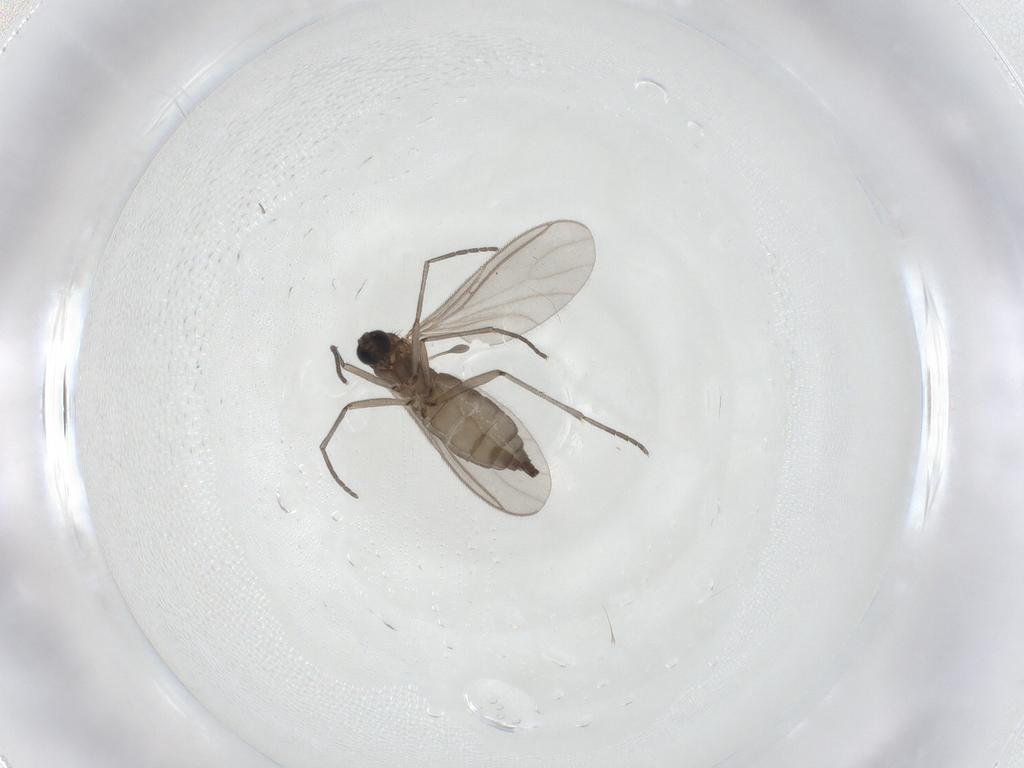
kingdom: Animalia
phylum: Arthropoda
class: Insecta
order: Diptera
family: Sciaridae
